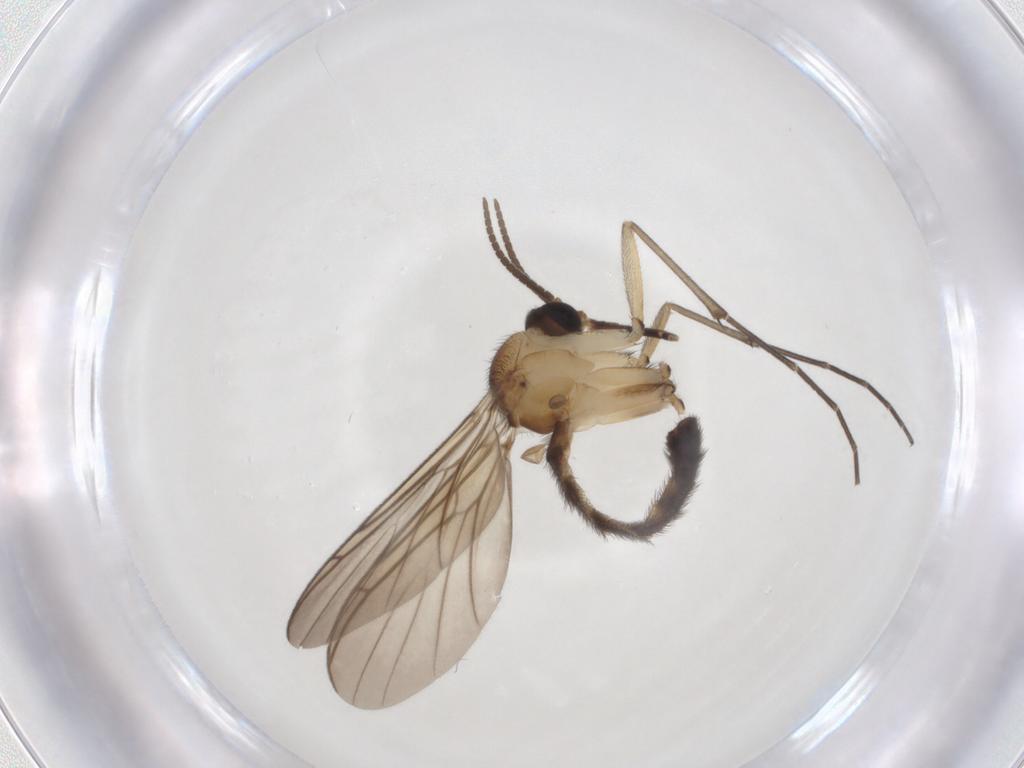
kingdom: Animalia
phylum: Arthropoda
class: Insecta
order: Diptera
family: Keroplatidae
